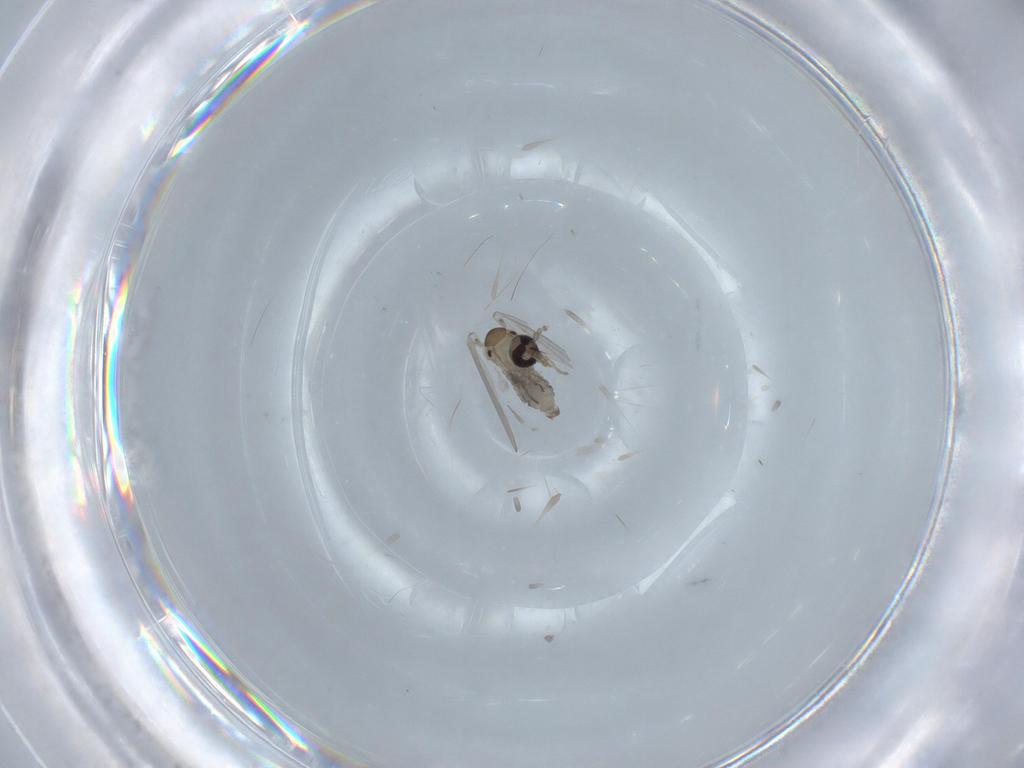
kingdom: Animalia
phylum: Arthropoda
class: Insecta
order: Diptera
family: Psychodidae
